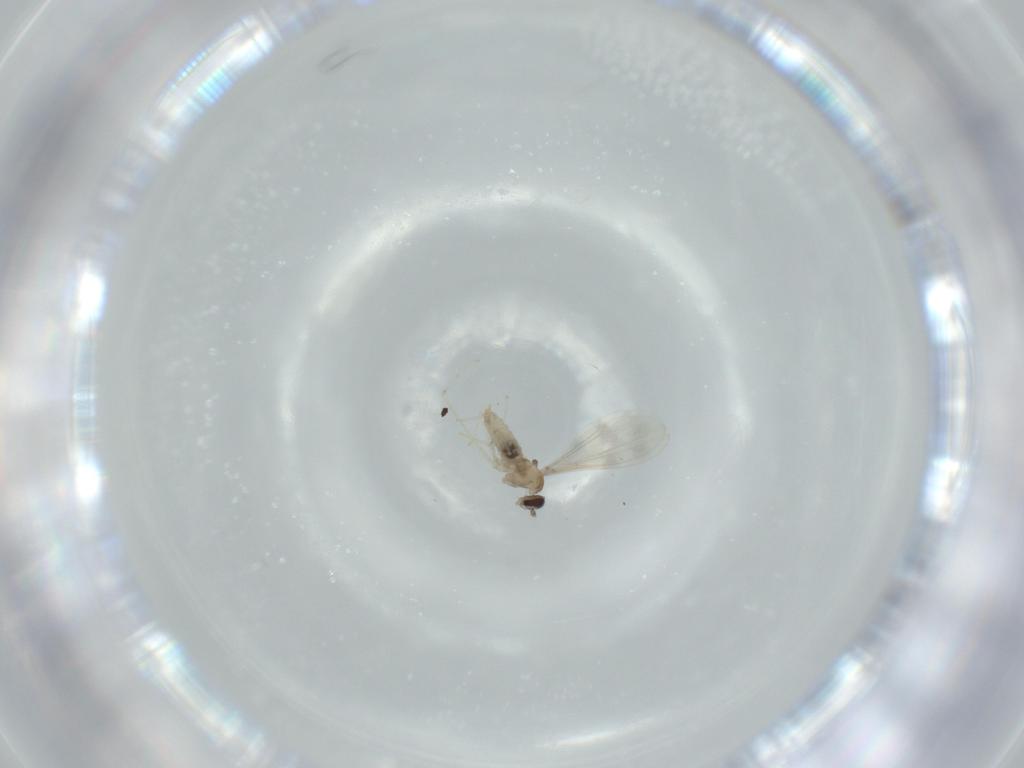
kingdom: Animalia
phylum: Arthropoda
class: Insecta
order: Diptera
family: Cecidomyiidae
